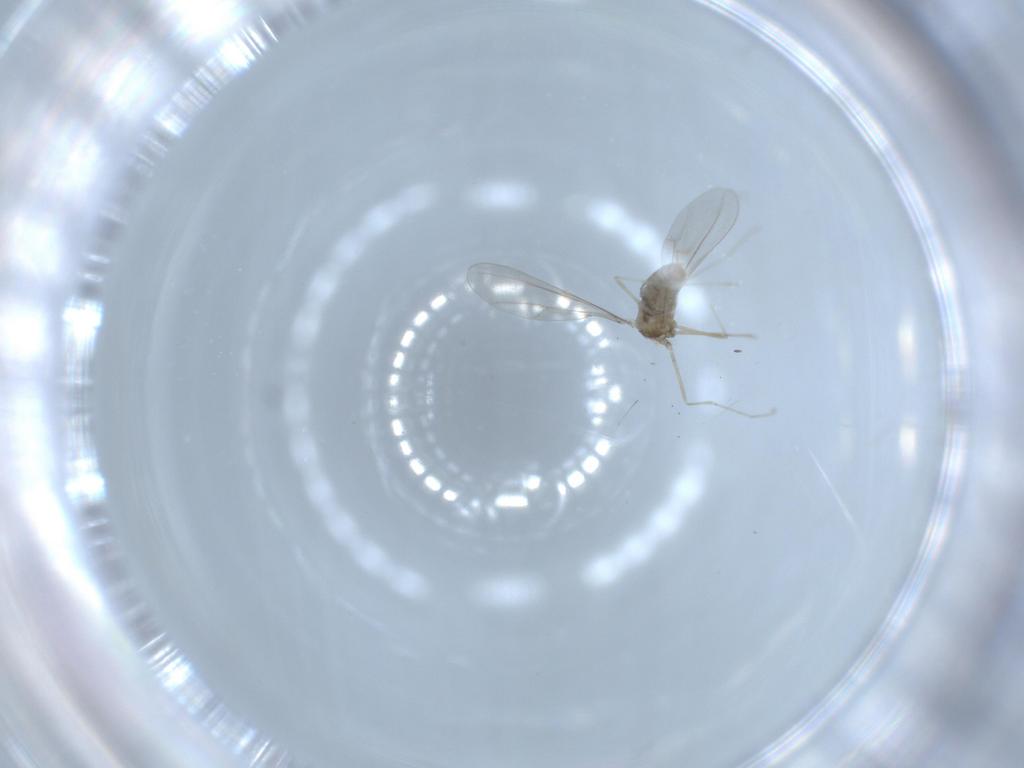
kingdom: Animalia
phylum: Arthropoda
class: Insecta
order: Diptera
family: Cecidomyiidae
